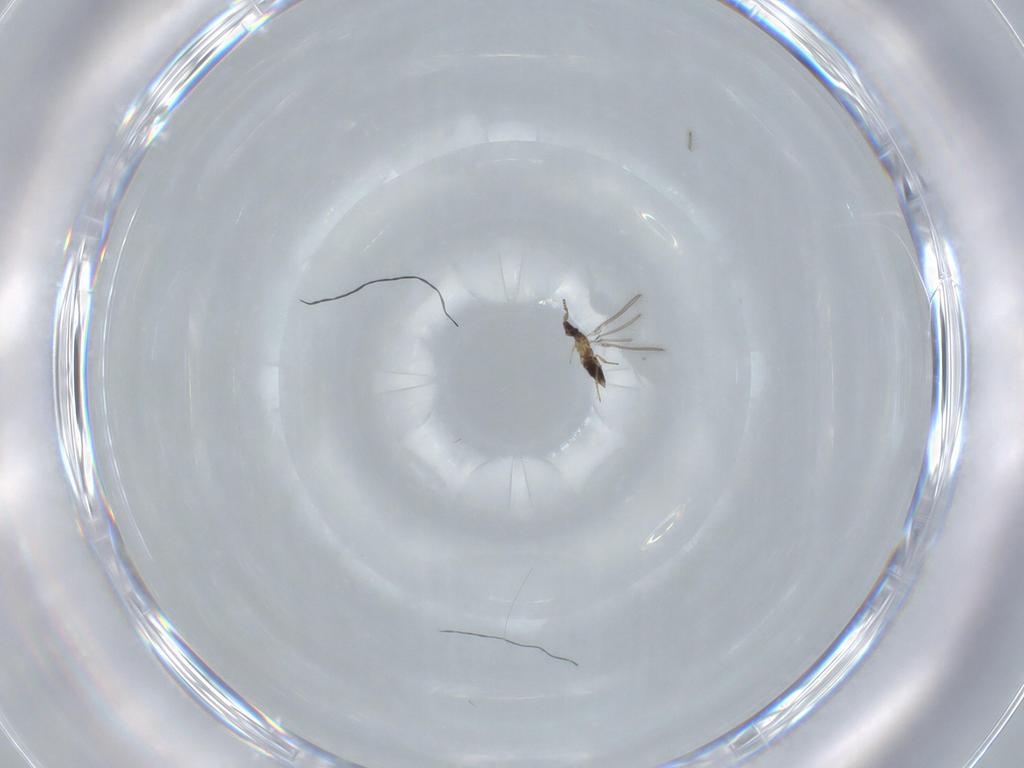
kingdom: Animalia
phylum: Arthropoda
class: Insecta
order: Hymenoptera
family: Mymaridae
